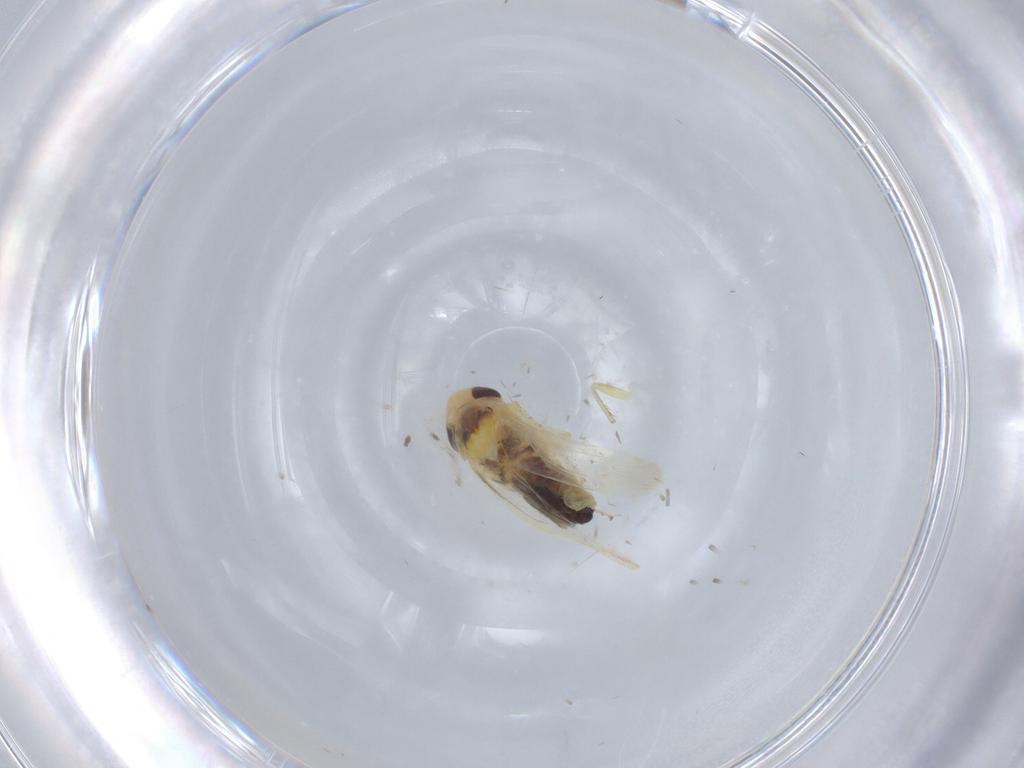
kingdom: Animalia
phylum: Arthropoda
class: Insecta
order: Hemiptera
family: Cicadellidae
